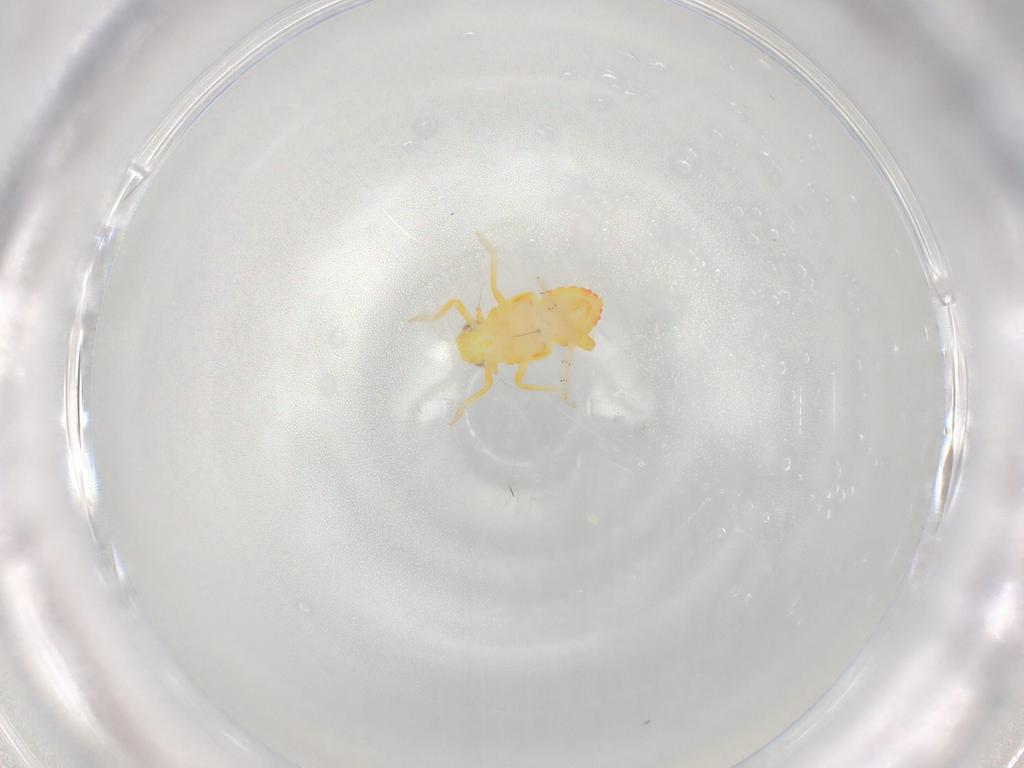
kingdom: Animalia
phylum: Arthropoda
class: Insecta
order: Hemiptera
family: Tropiduchidae
